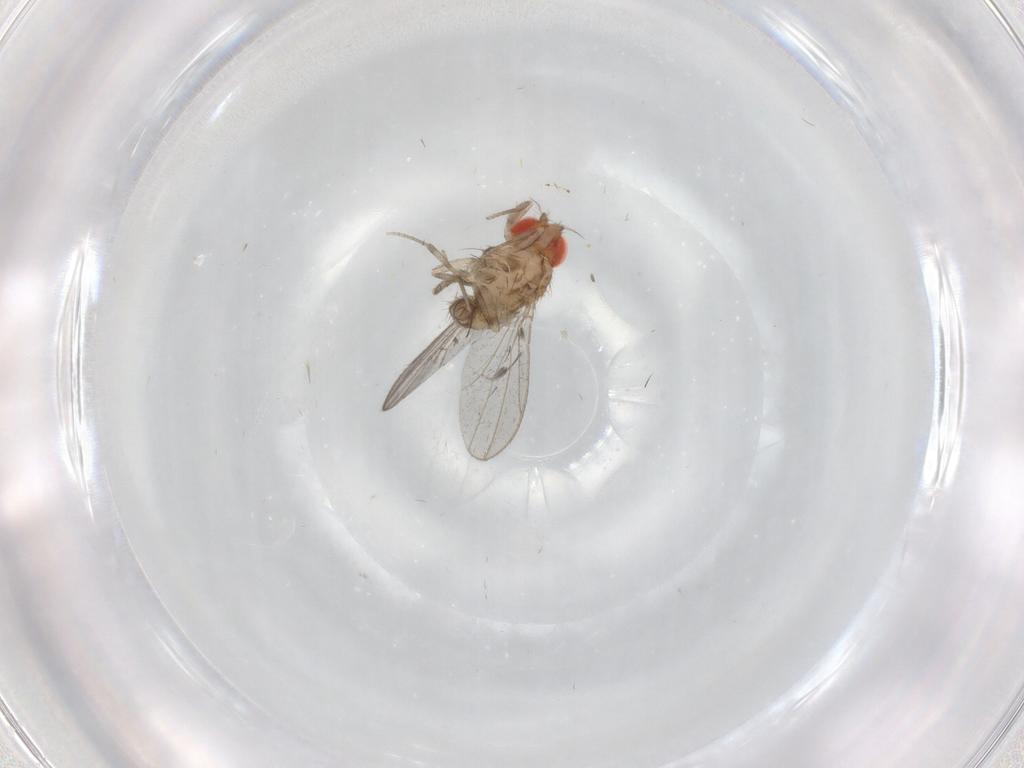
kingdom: Animalia
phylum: Arthropoda
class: Insecta
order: Diptera
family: Drosophilidae
